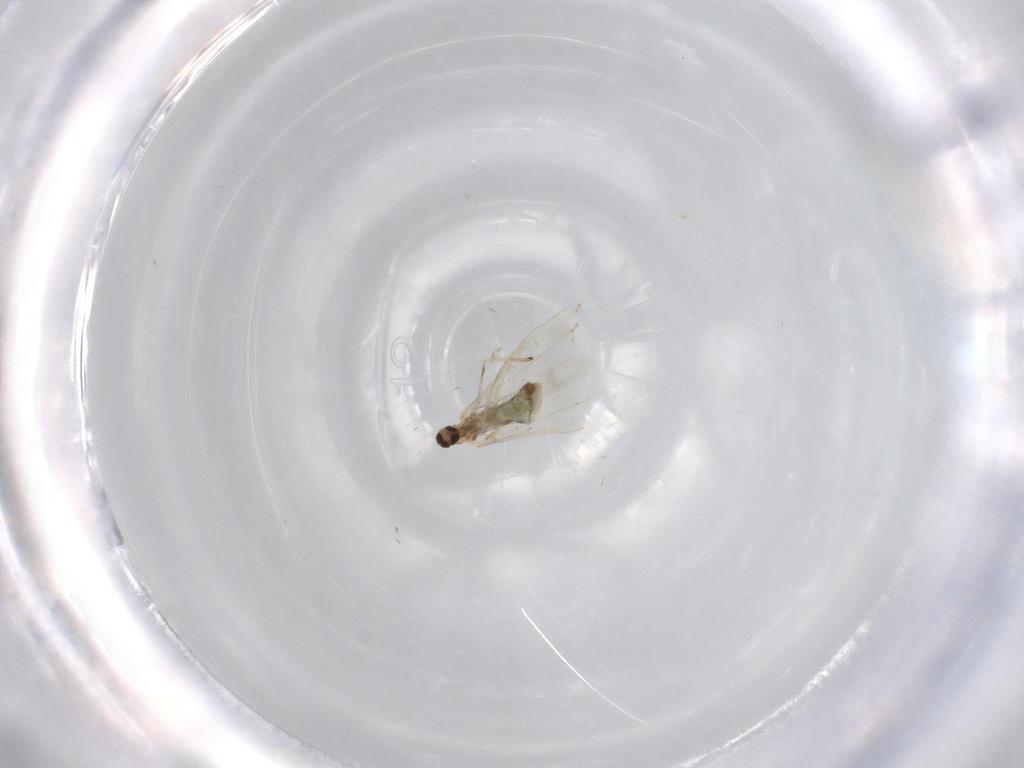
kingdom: Animalia
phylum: Arthropoda
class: Insecta
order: Diptera
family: Cecidomyiidae
